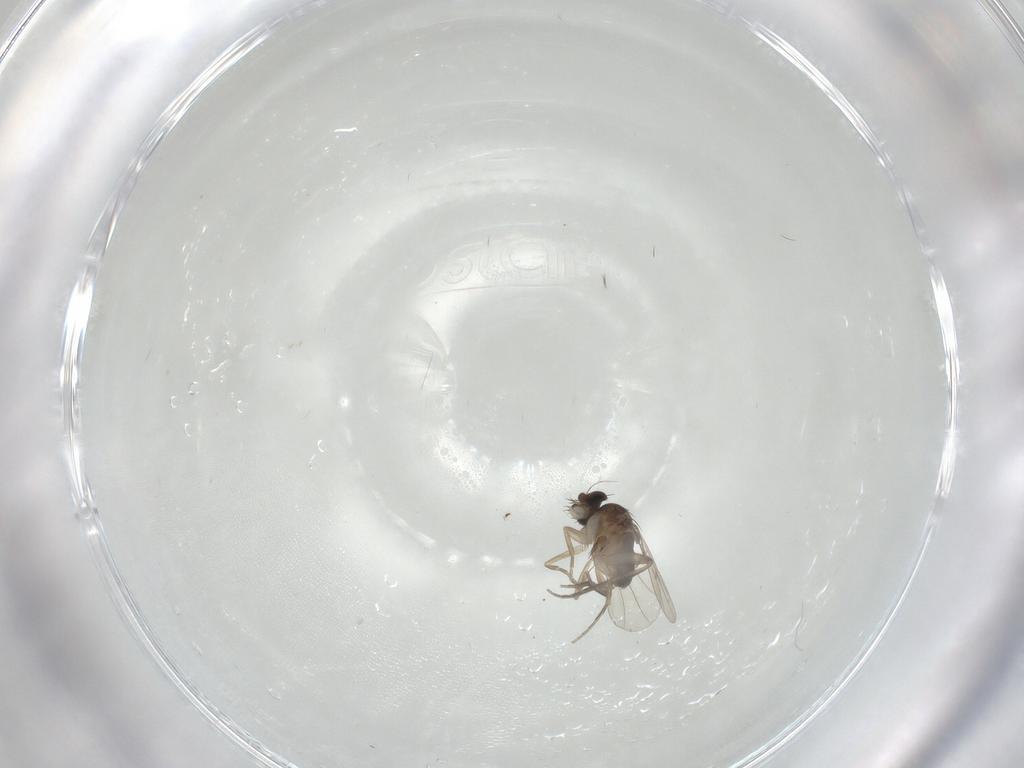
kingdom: Animalia
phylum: Arthropoda
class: Insecta
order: Diptera
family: Phoridae
